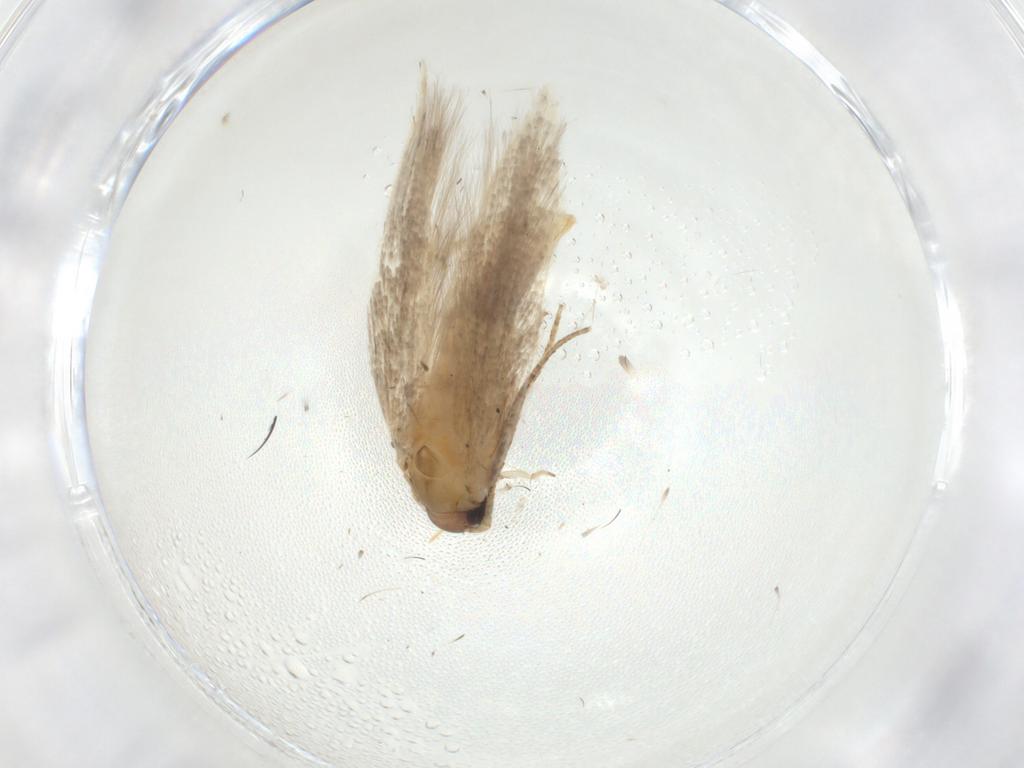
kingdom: Animalia
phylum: Arthropoda
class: Insecta
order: Lepidoptera
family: Gelechiidae
